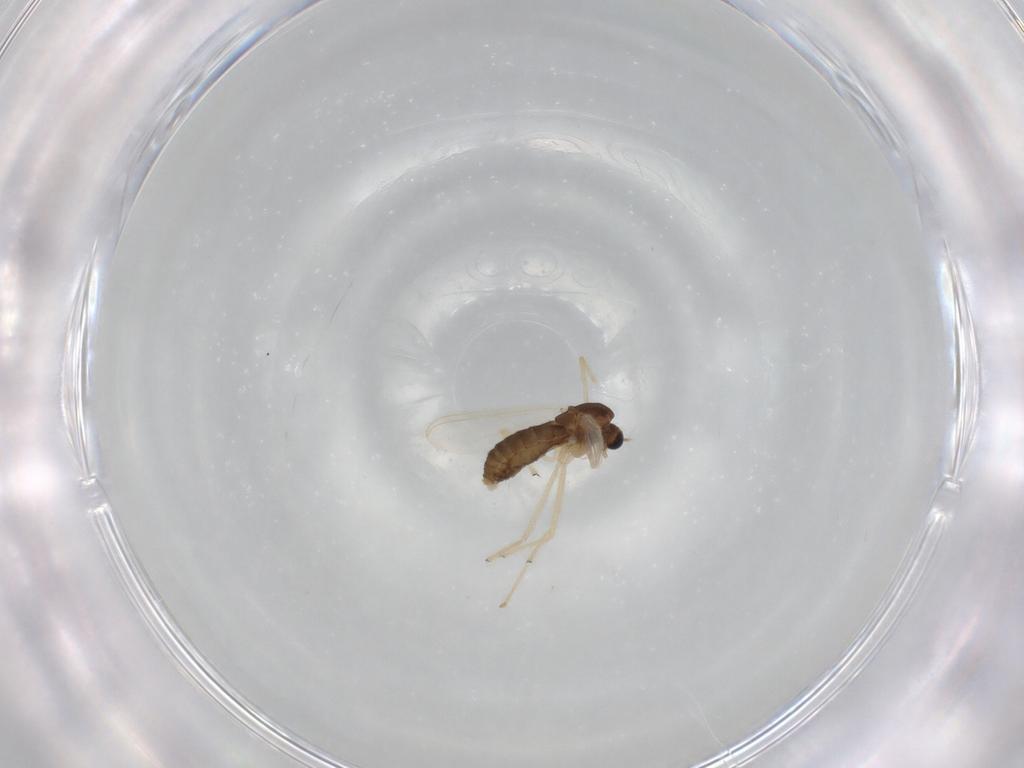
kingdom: Animalia
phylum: Arthropoda
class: Insecta
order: Diptera
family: Chironomidae
